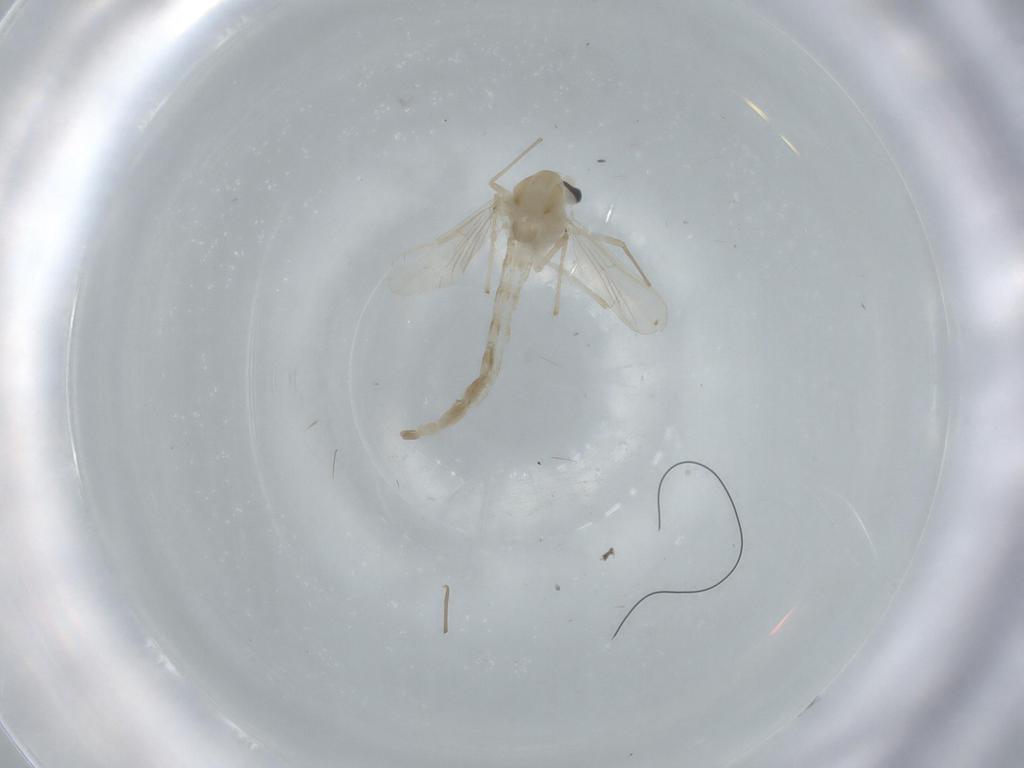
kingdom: Animalia
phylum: Arthropoda
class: Insecta
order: Diptera
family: Chironomidae
